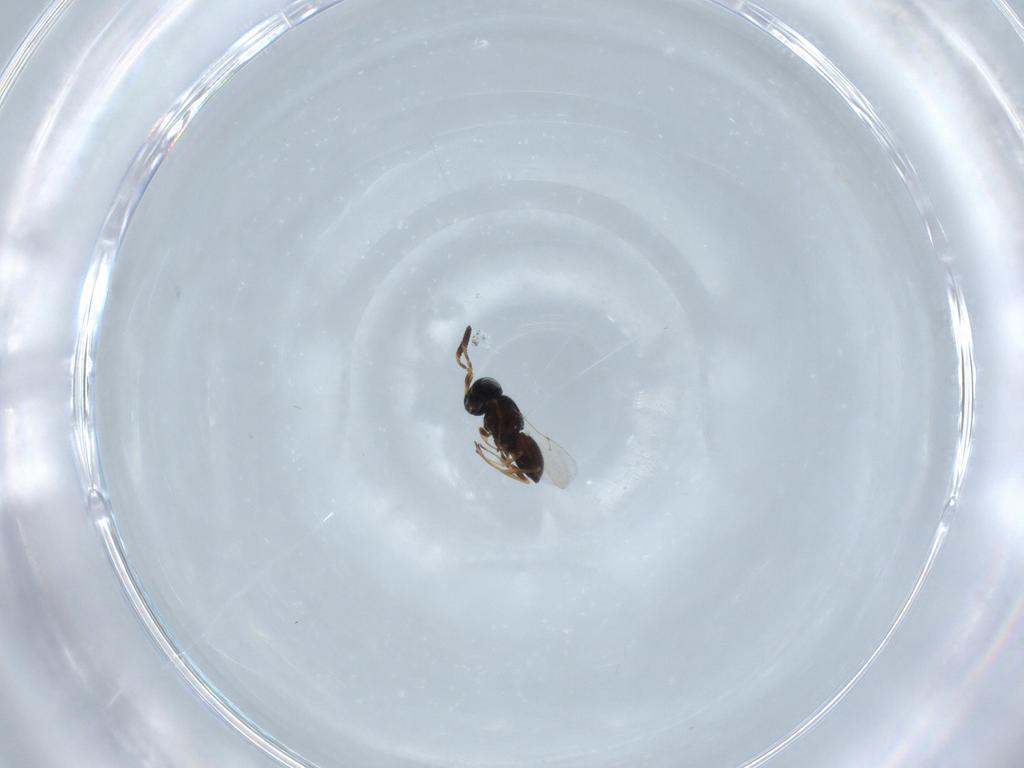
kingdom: Animalia
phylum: Arthropoda
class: Insecta
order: Hymenoptera
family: Scelionidae
